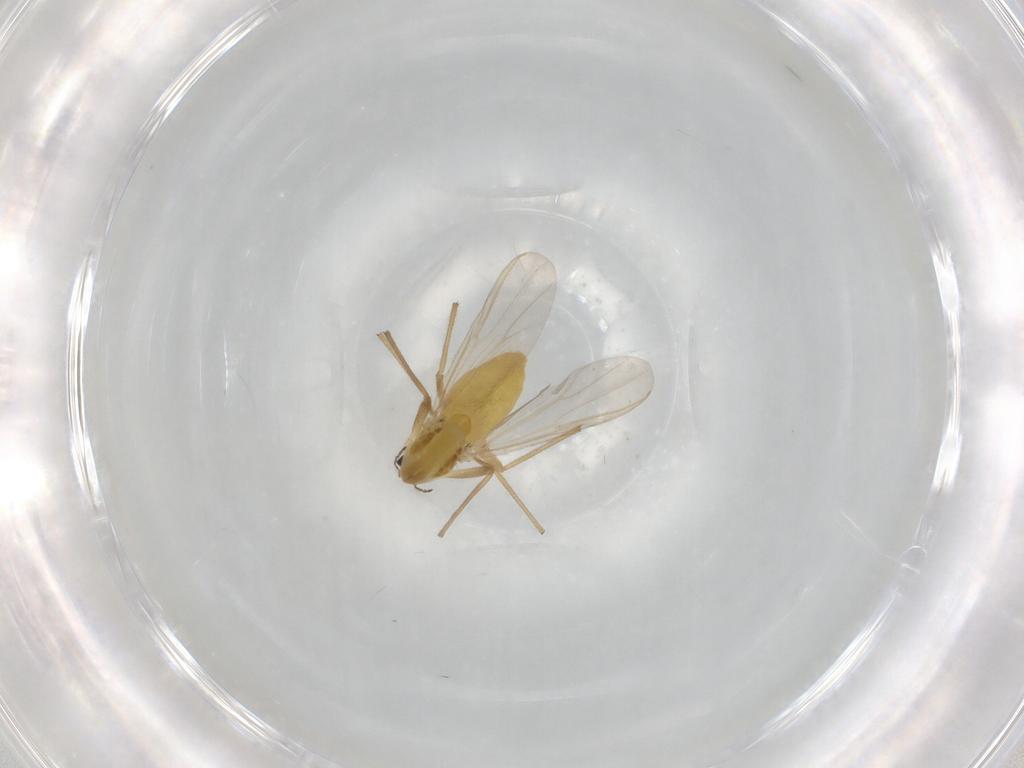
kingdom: Animalia
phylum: Arthropoda
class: Insecta
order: Diptera
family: Chironomidae
